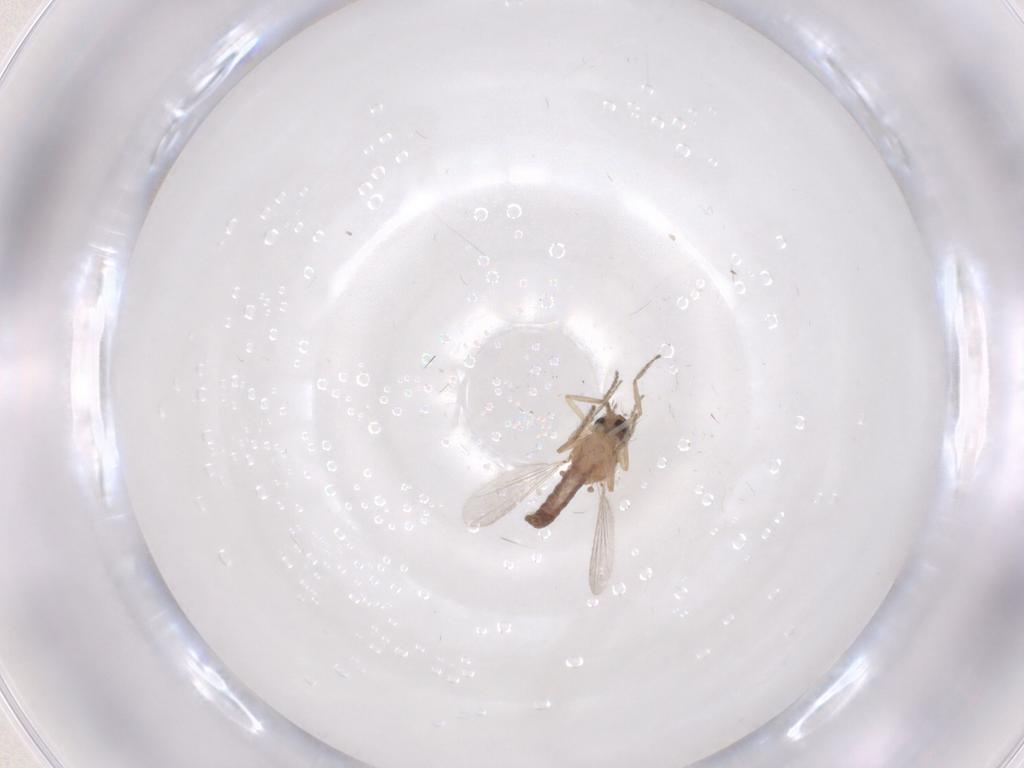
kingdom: Animalia
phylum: Arthropoda
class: Insecta
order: Diptera
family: Ceratopogonidae
